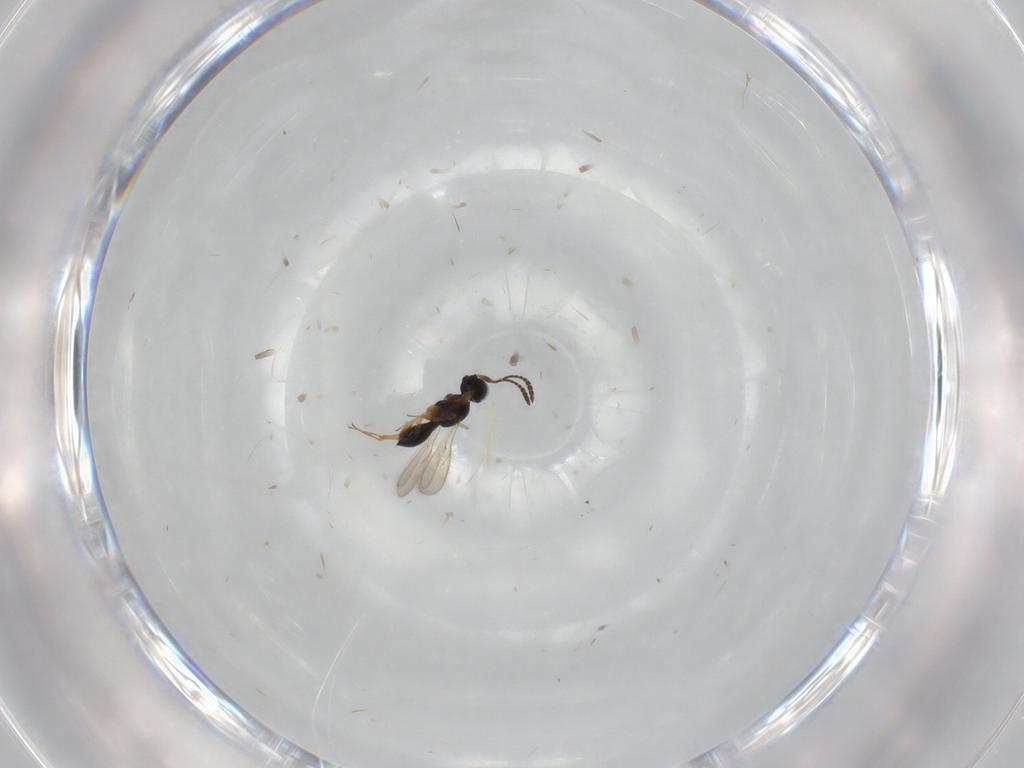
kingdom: Animalia
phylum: Arthropoda
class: Insecta
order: Hymenoptera
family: Scelionidae
